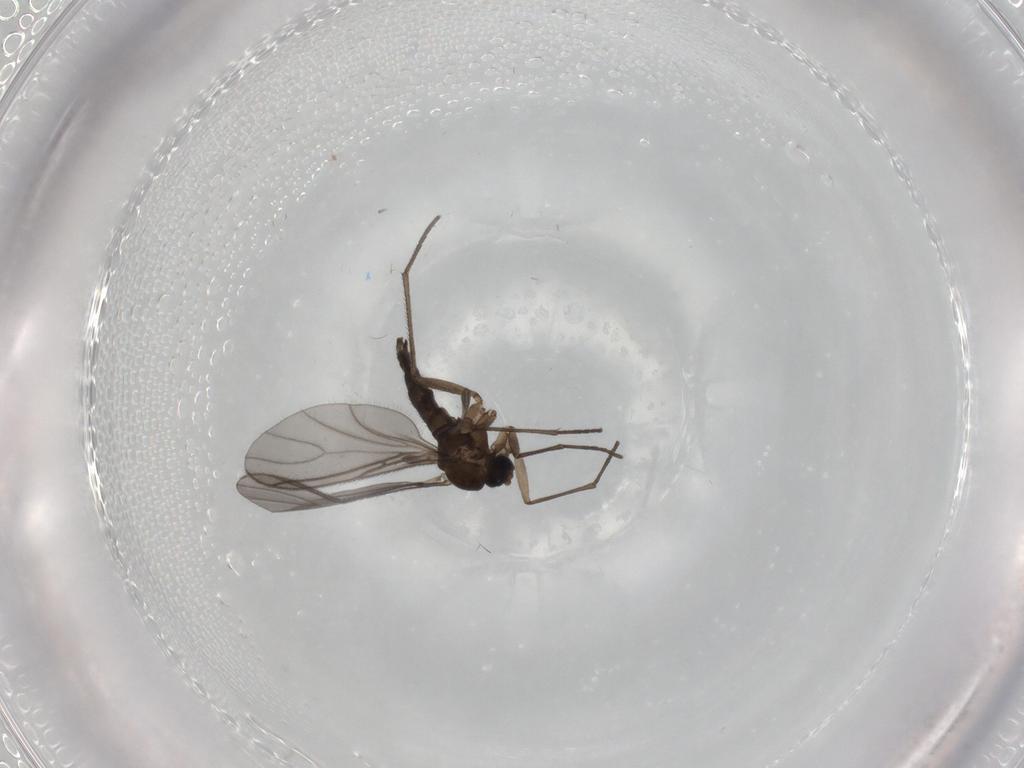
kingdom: Animalia
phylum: Arthropoda
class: Insecta
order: Diptera
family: Sciaridae
